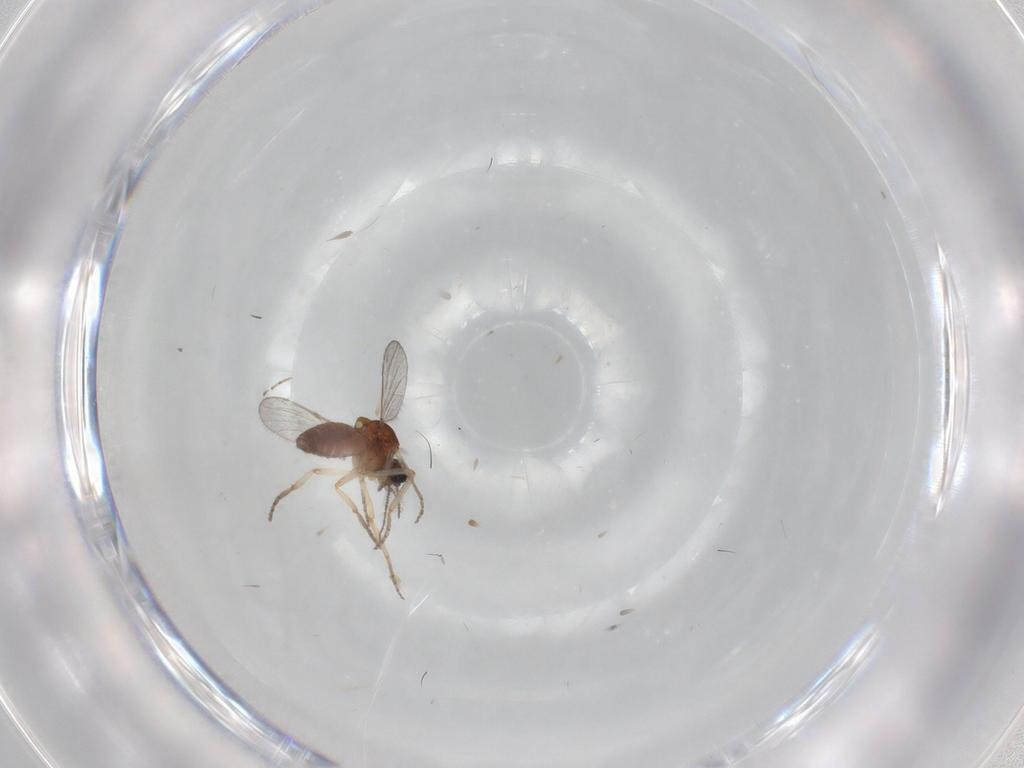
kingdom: Animalia
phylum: Arthropoda
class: Insecta
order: Diptera
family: Ceratopogonidae
